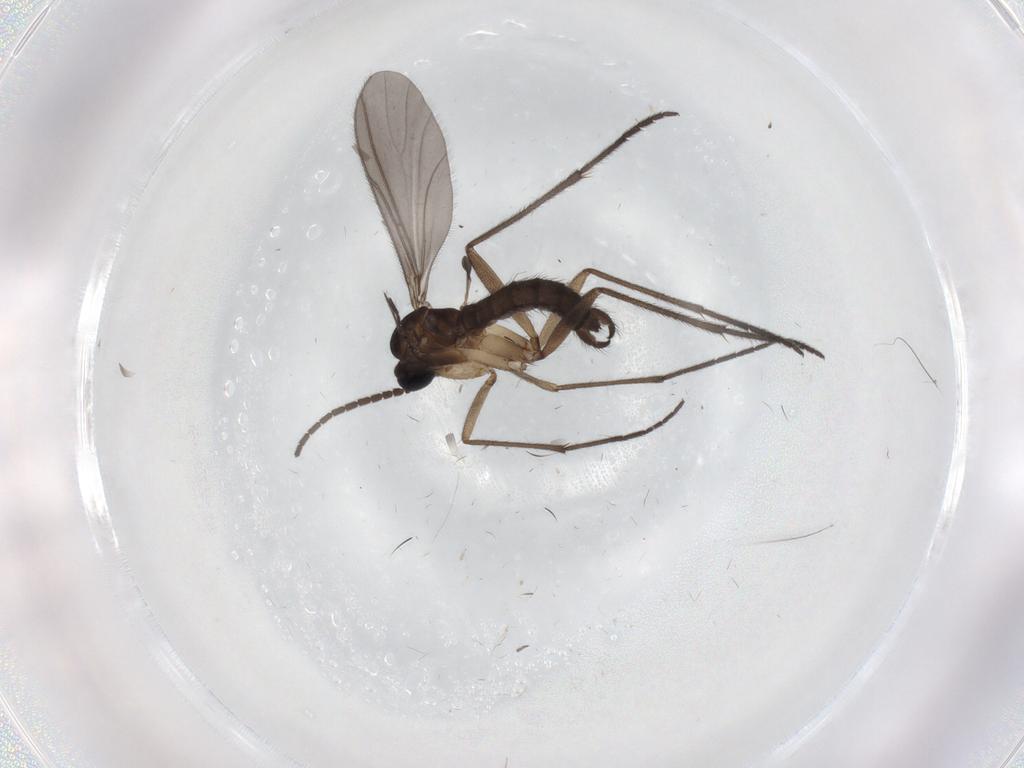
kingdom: Animalia
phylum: Arthropoda
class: Insecta
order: Diptera
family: Sciaridae
